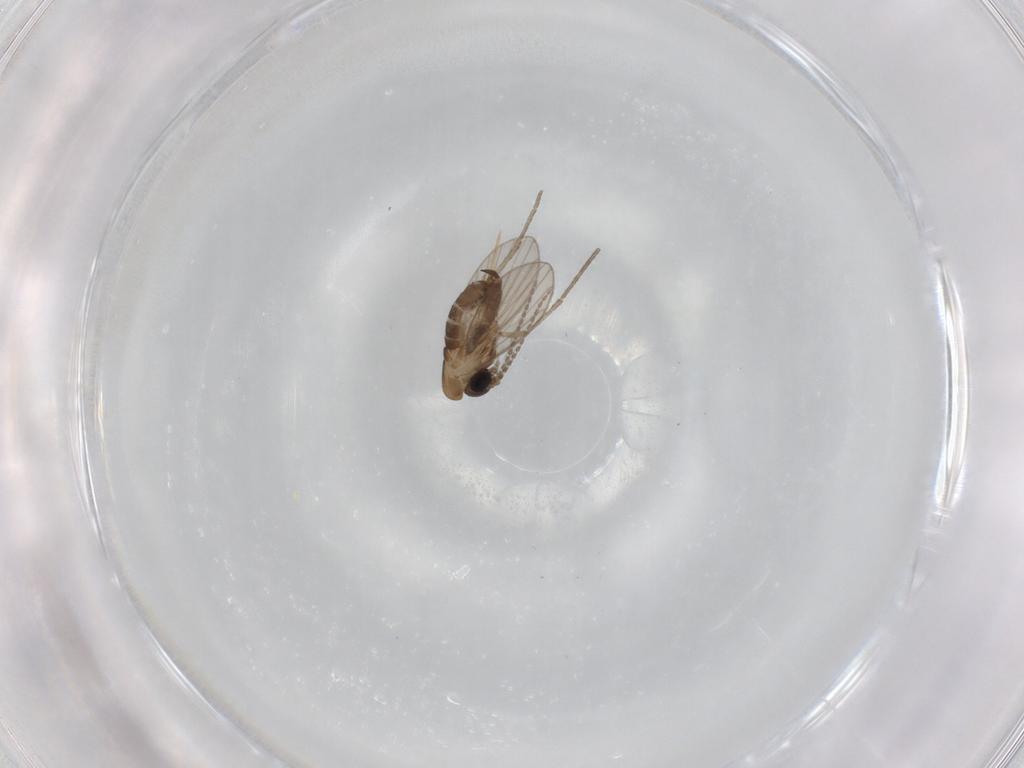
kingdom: Animalia
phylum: Arthropoda
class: Insecta
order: Diptera
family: Psychodidae
